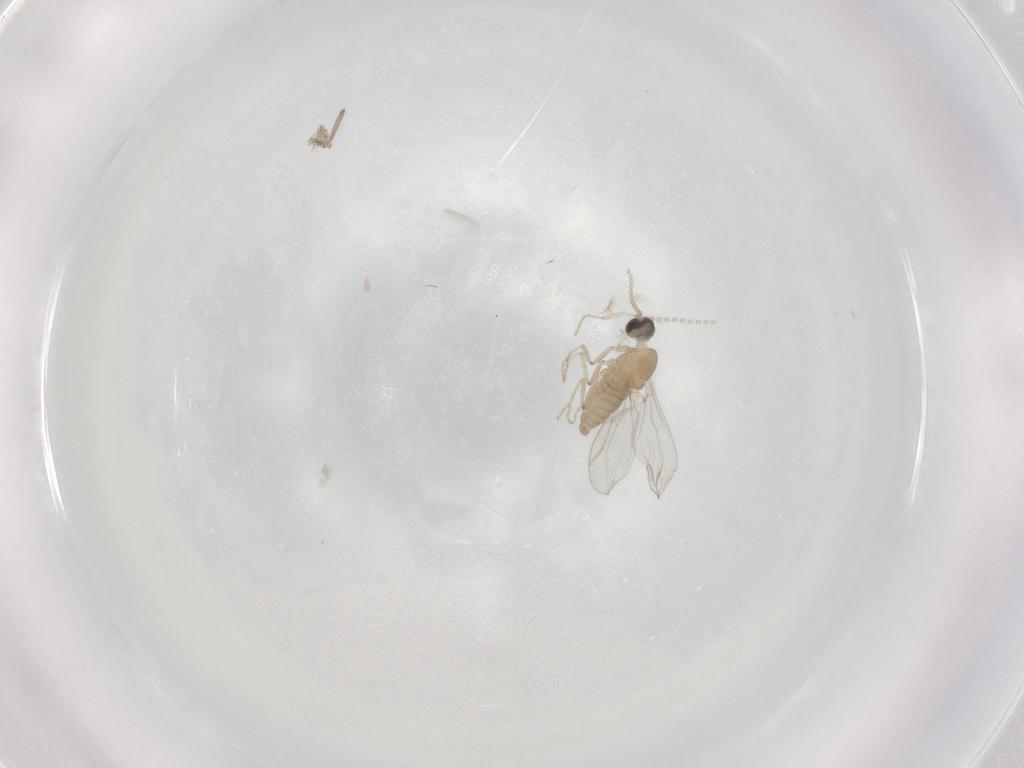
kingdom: Animalia
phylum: Arthropoda
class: Insecta
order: Diptera
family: Cecidomyiidae
